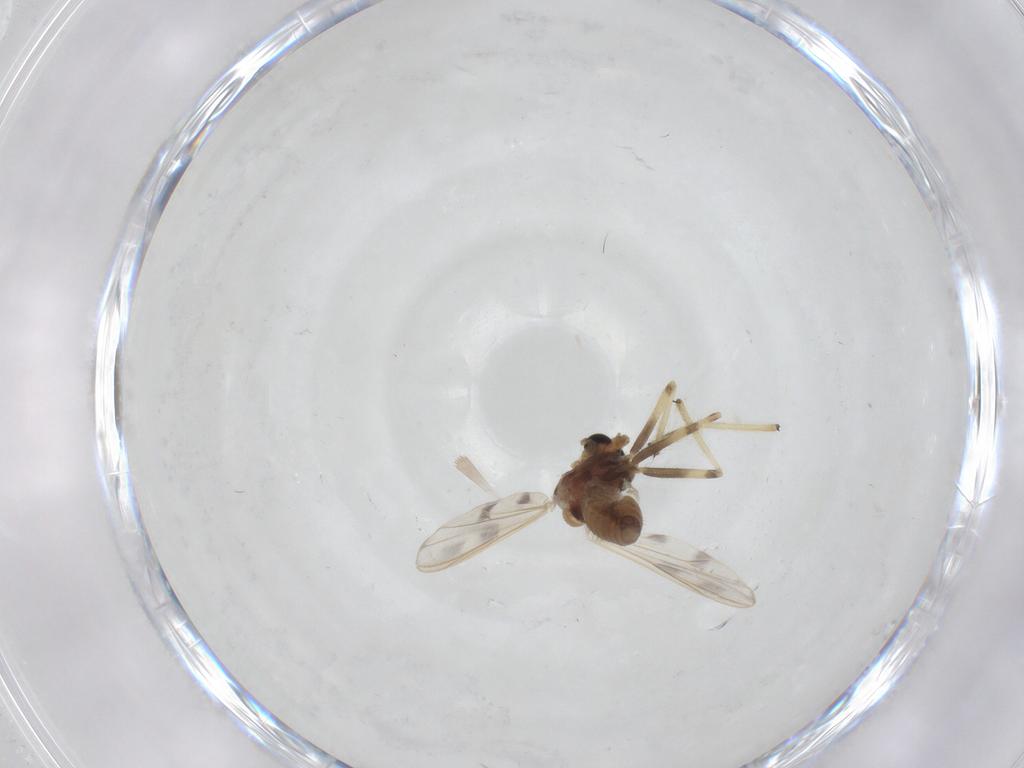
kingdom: Animalia
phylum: Arthropoda
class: Insecta
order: Diptera
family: Chironomidae
